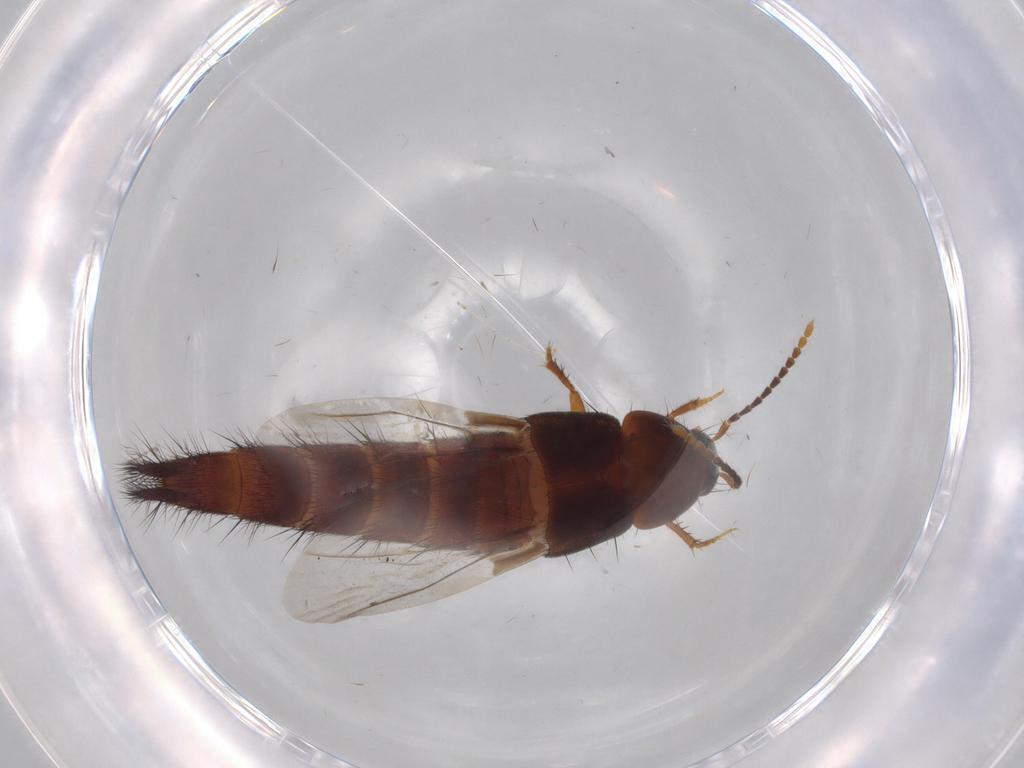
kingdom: Animalia
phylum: Arthropoda
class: Insecta
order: Coleoptera
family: Staphylinidae
